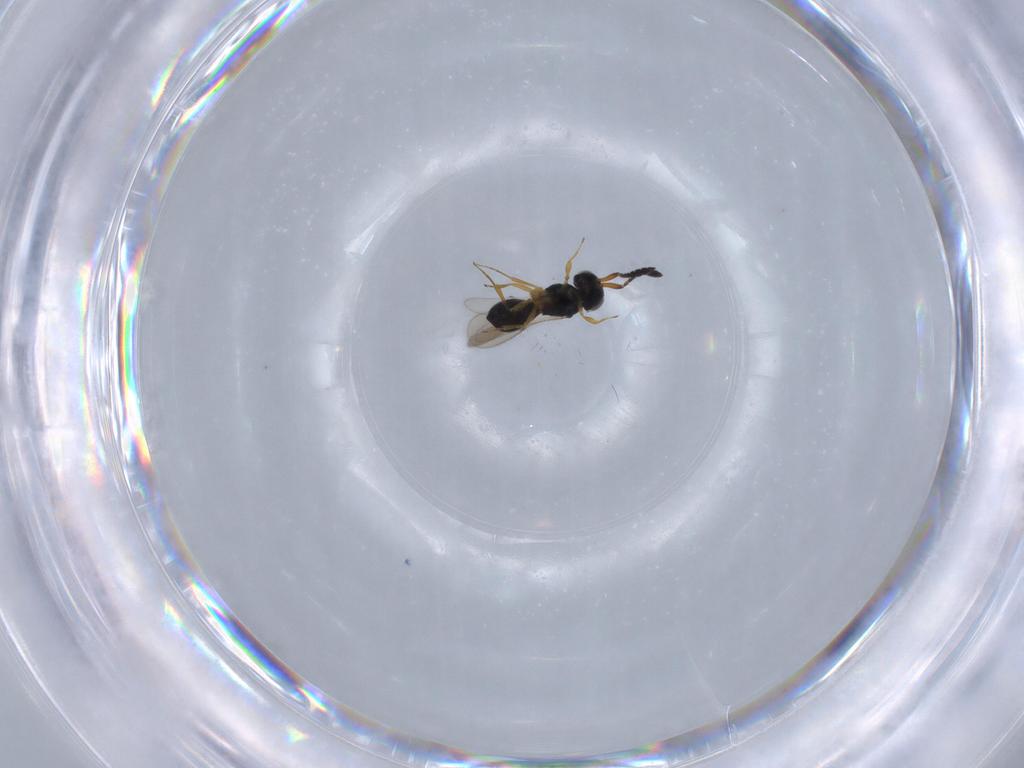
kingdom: Animalia
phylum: Arthropoda
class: Insecta
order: Hymenoptera
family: Scelionidae
